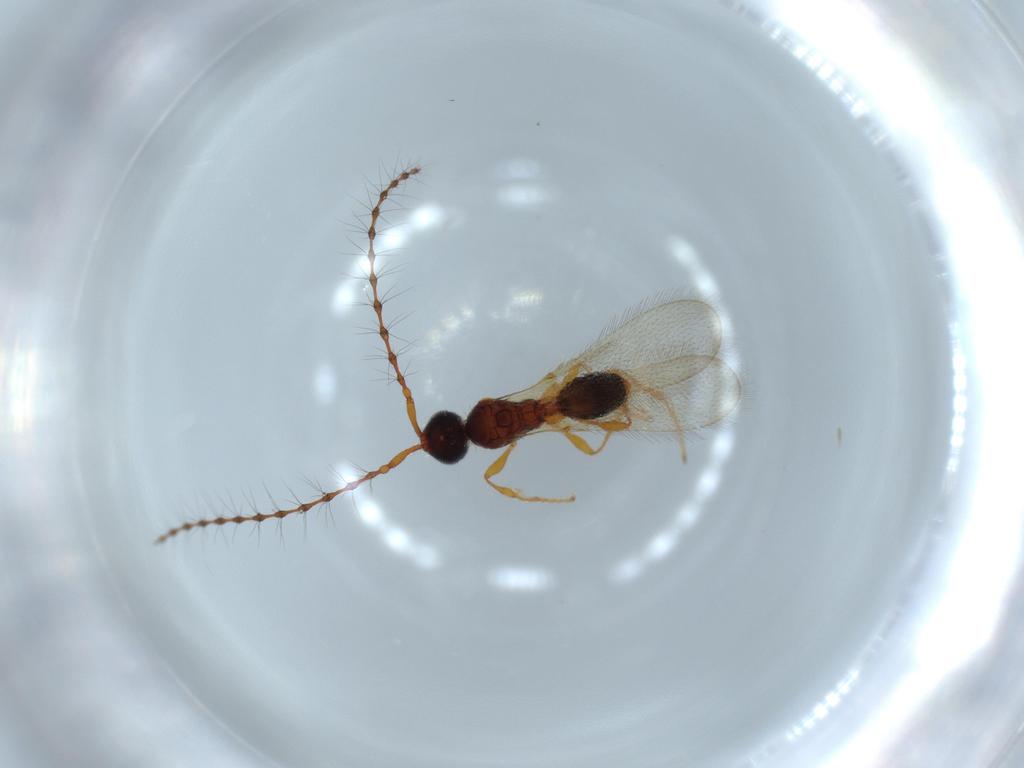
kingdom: Animalia
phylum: Arthropoda
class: Insecta
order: Hymenoptera
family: Diapriidae
